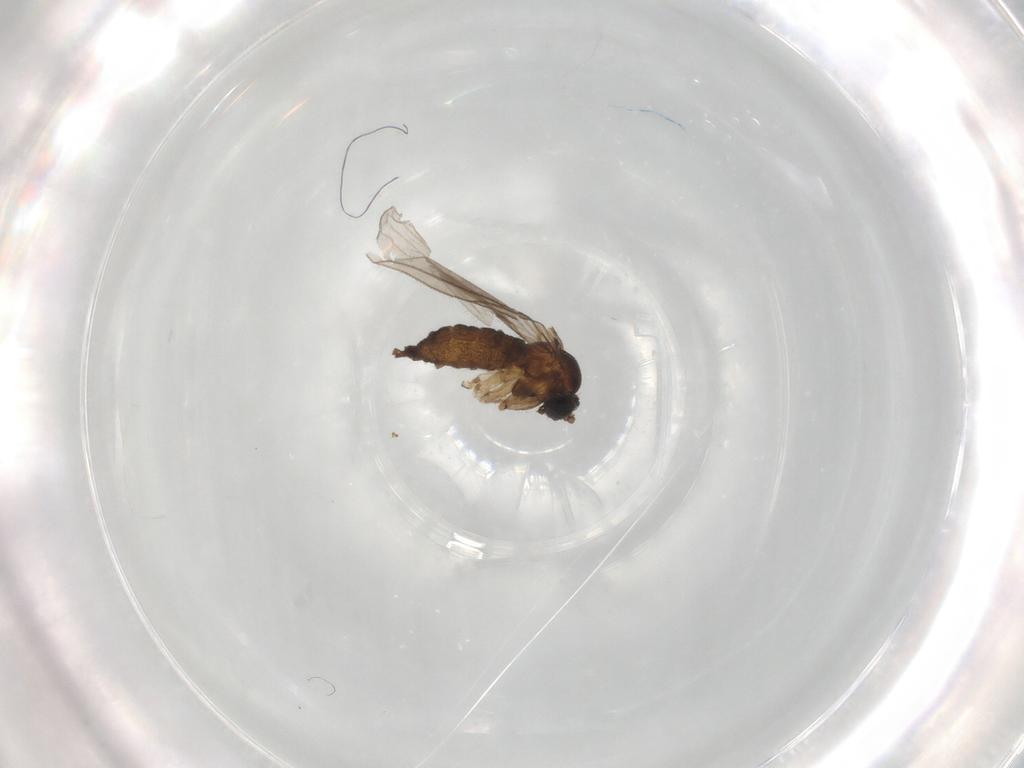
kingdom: Animalia
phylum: Arthropoda
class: Insecta
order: Diptera
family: Sciaridae
